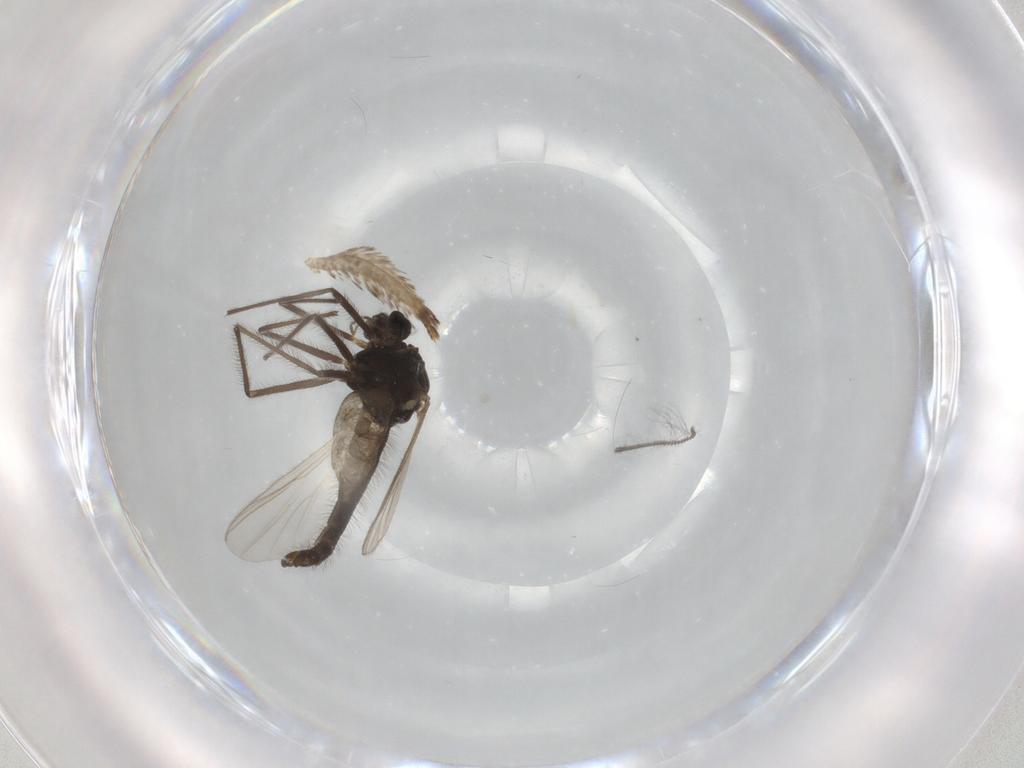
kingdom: Animalia
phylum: Arthropoda
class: Insecta
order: Diptera
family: Chironomidae
